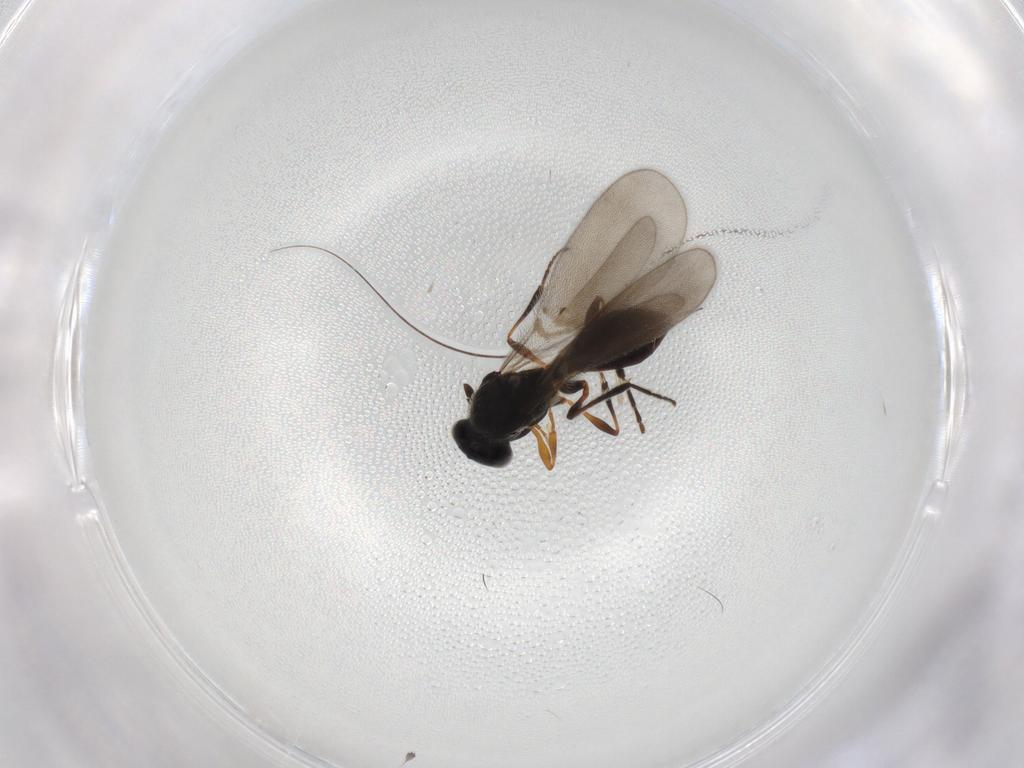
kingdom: Animalia
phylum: Arthropoda
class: Insecta
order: Hymenoptera
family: Platygastridae
